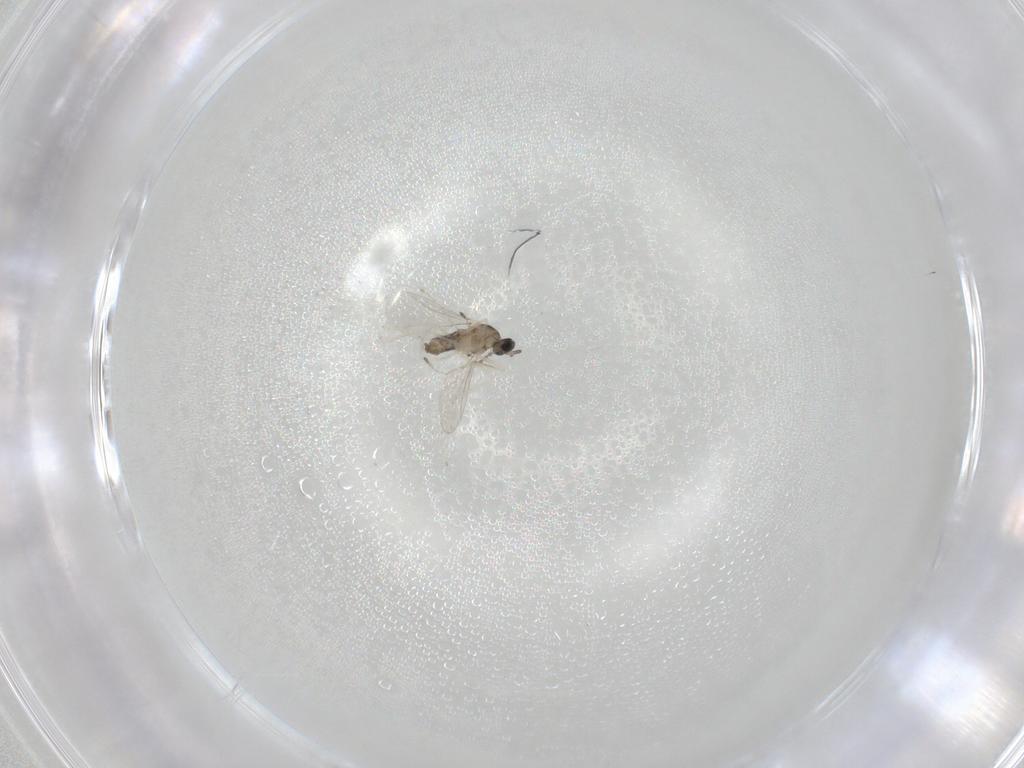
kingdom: Animalia
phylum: Arthropoda
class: Insecta
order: Diptera
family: Cecidomyiidae
